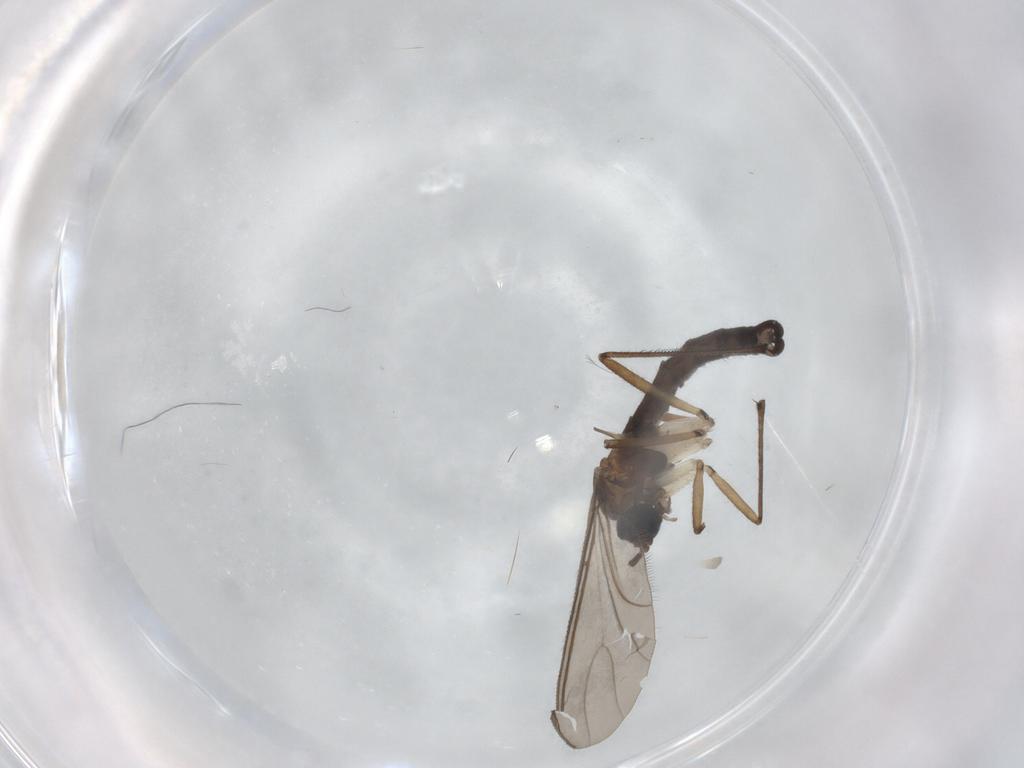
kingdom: Animalia
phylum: Arthropoda
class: Insecta
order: Diptera
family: Sciaridae
